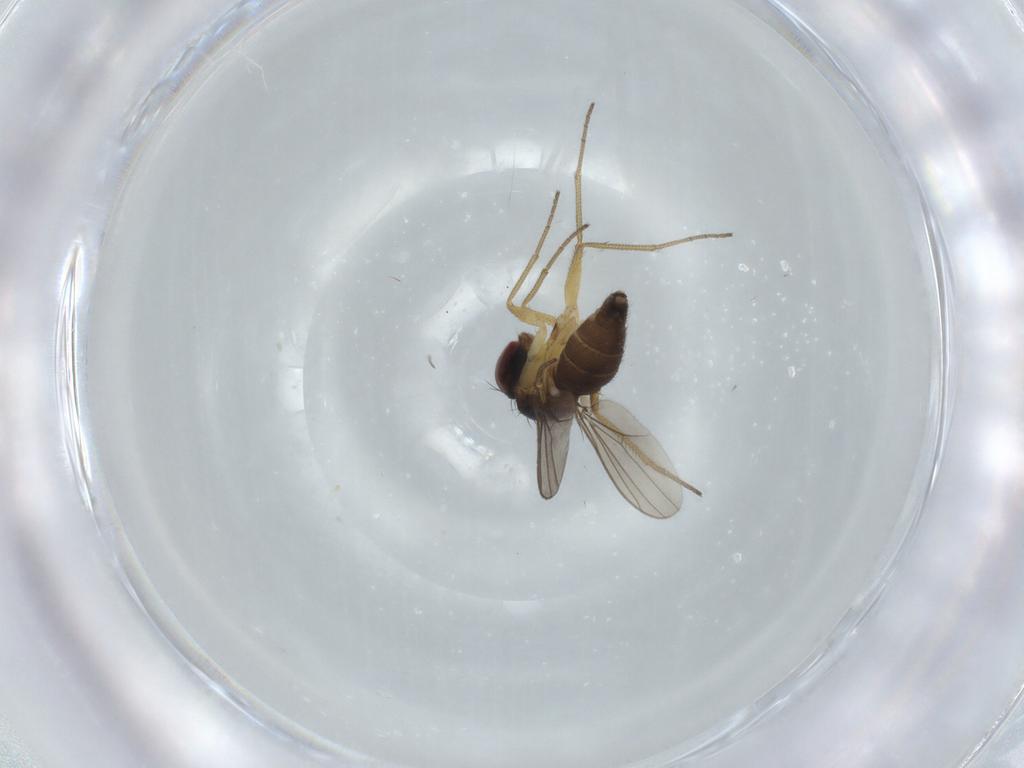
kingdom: Animalia
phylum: Arthropoda
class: Insecta
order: Diptera
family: Dolichopodidae
